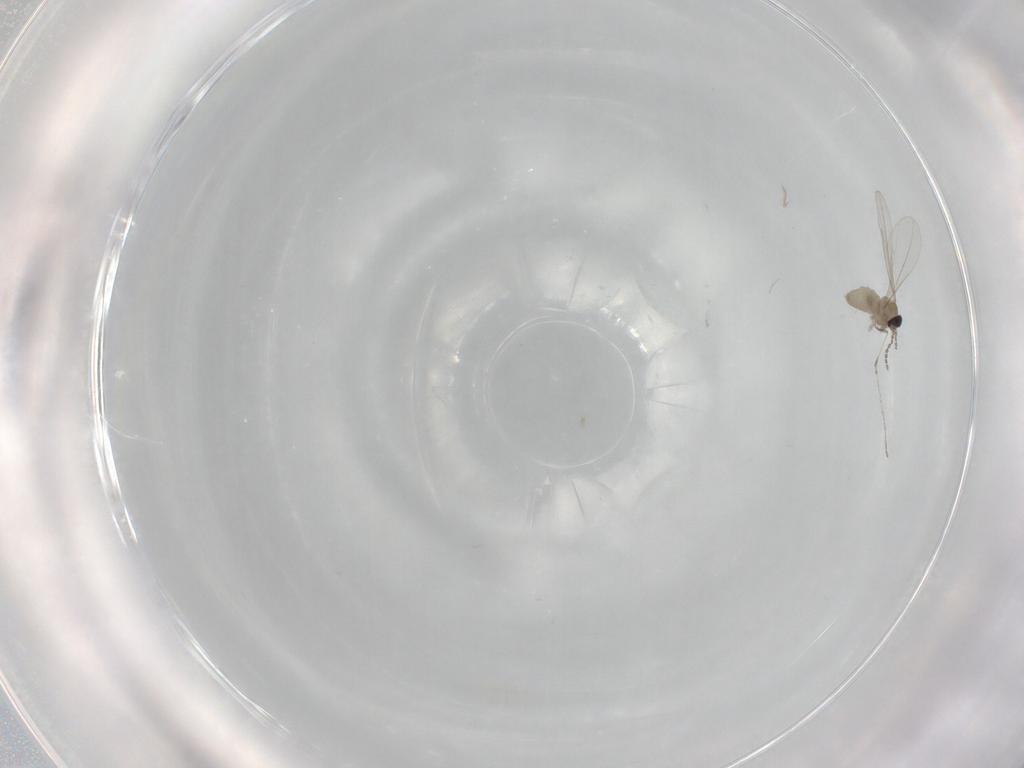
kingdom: Animalia
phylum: Arthropoda
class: Insecta
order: Diptera
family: Cecidomyiidae
